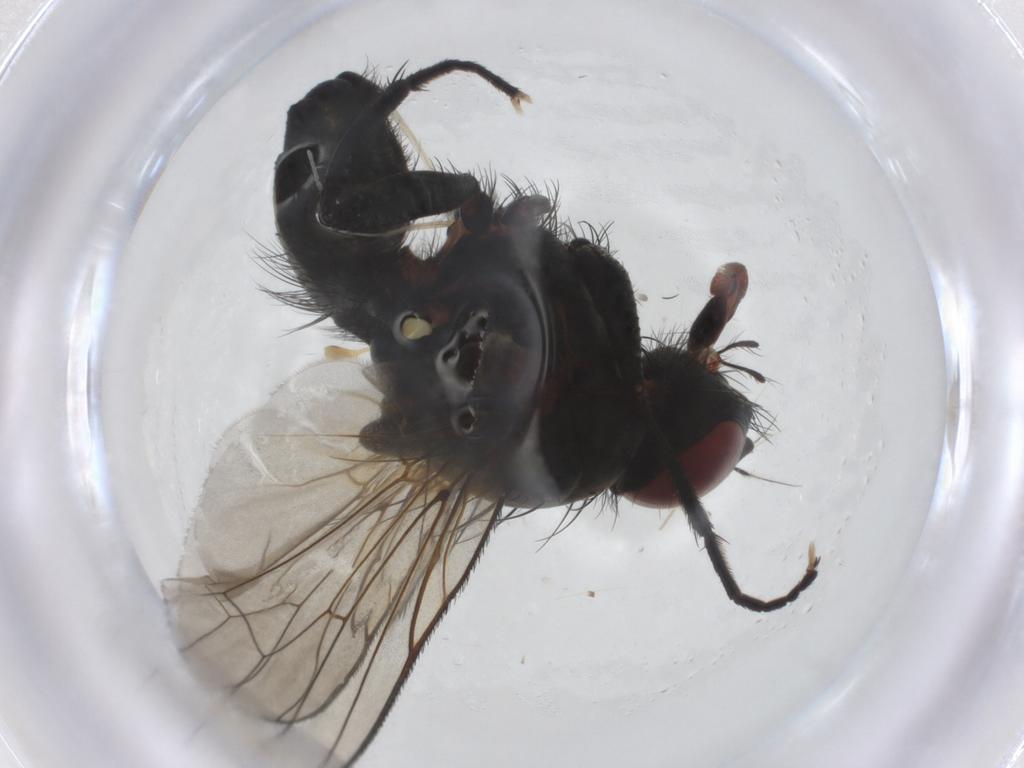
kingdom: Animalia
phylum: Arthropoda
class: Insecta
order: Diptera
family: Anthomyiidae
